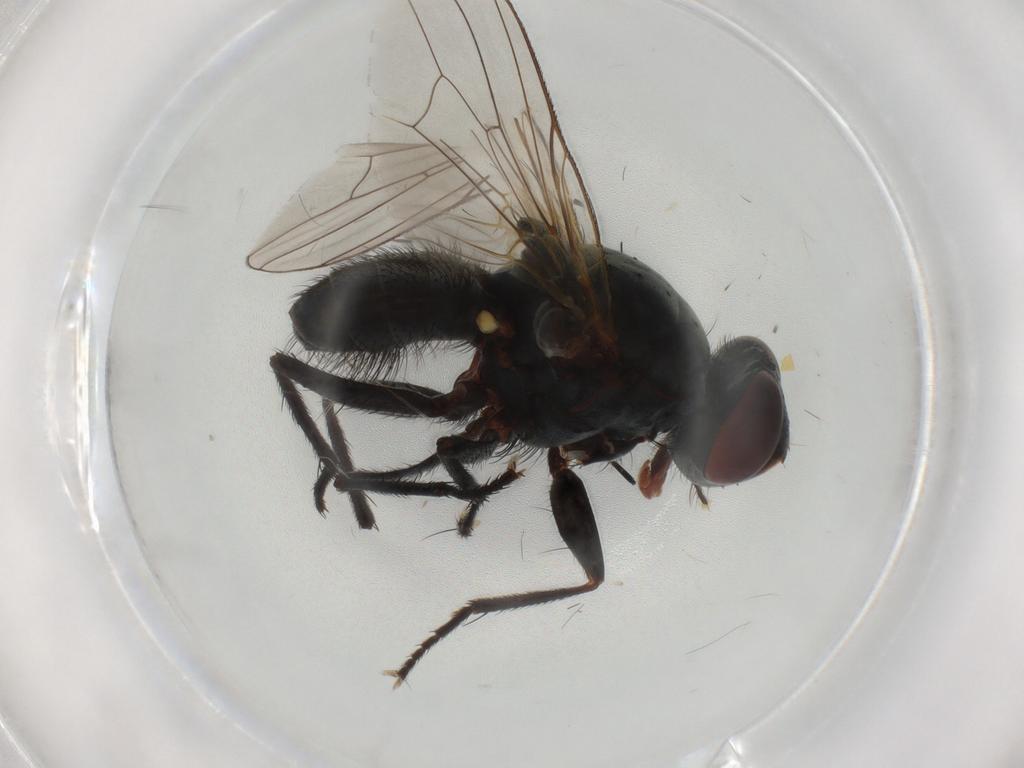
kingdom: Animalia
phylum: Arthropoda
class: Insecta
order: Diptera
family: Anthomyiidae
